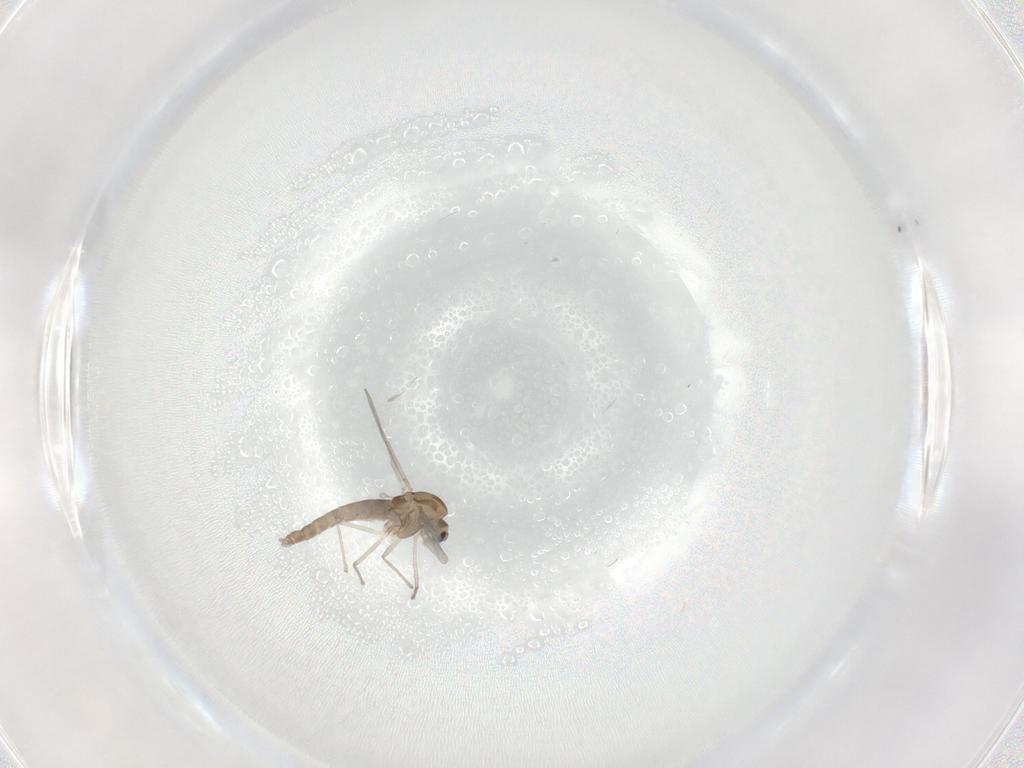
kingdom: Animalia
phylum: Arthropoda
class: Insecta
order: Diptera
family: Chironomidae
